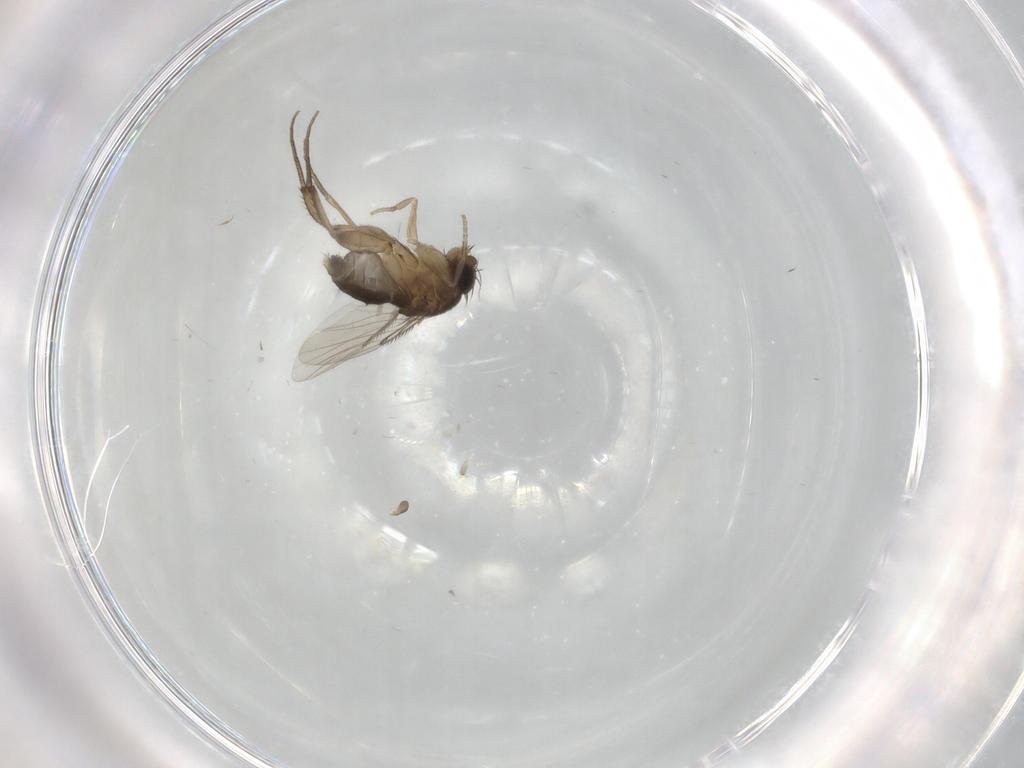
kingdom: Animalia
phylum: Arthropoda
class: Insecta
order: Diptera
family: Phoridae
